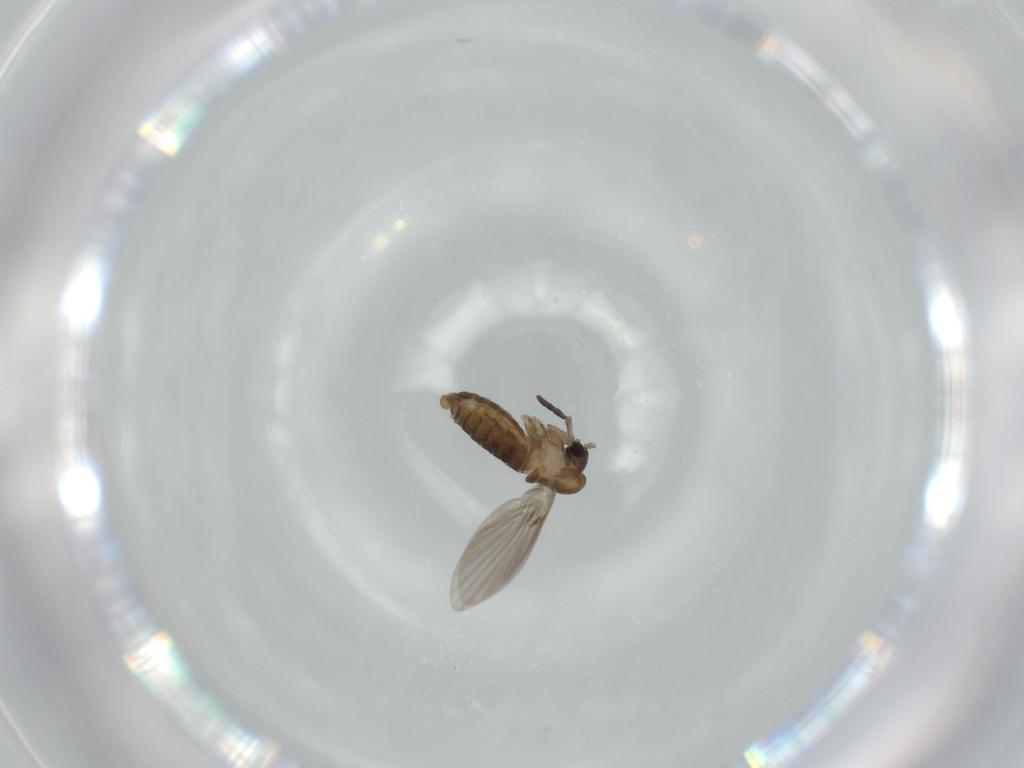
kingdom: Animalia
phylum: Arthropoda
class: Insecta
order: Diptera
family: Psychodidae
